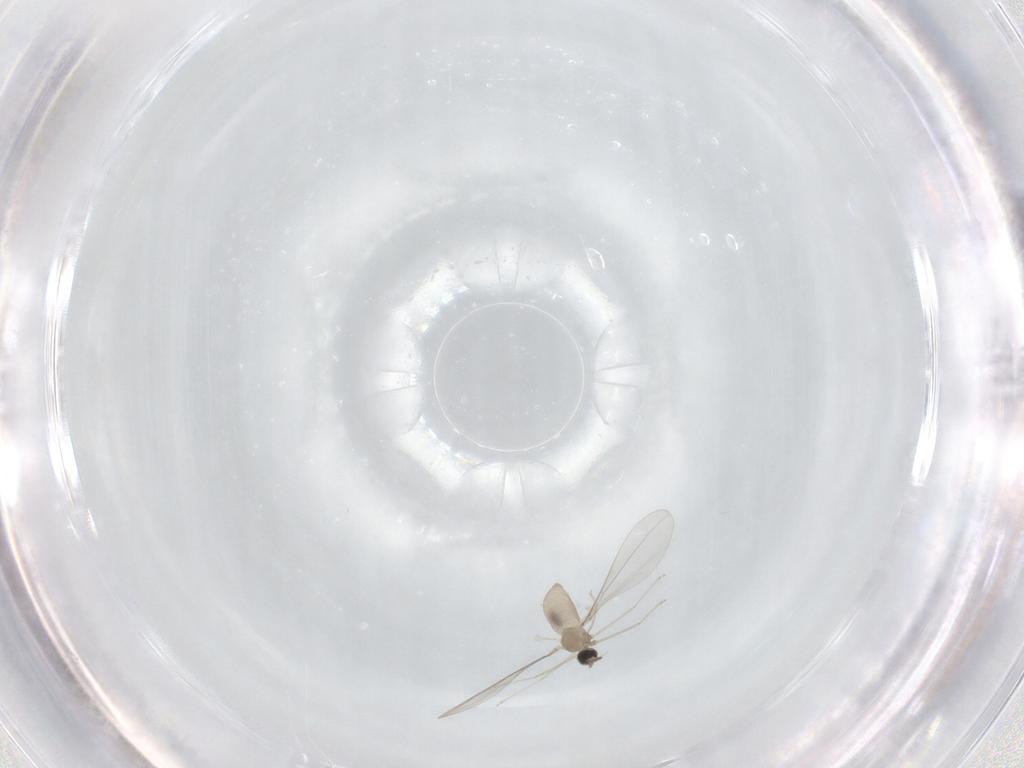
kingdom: Animalia
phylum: Arthropoda
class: Insecta
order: Diptera
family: Cecidomyiidae
